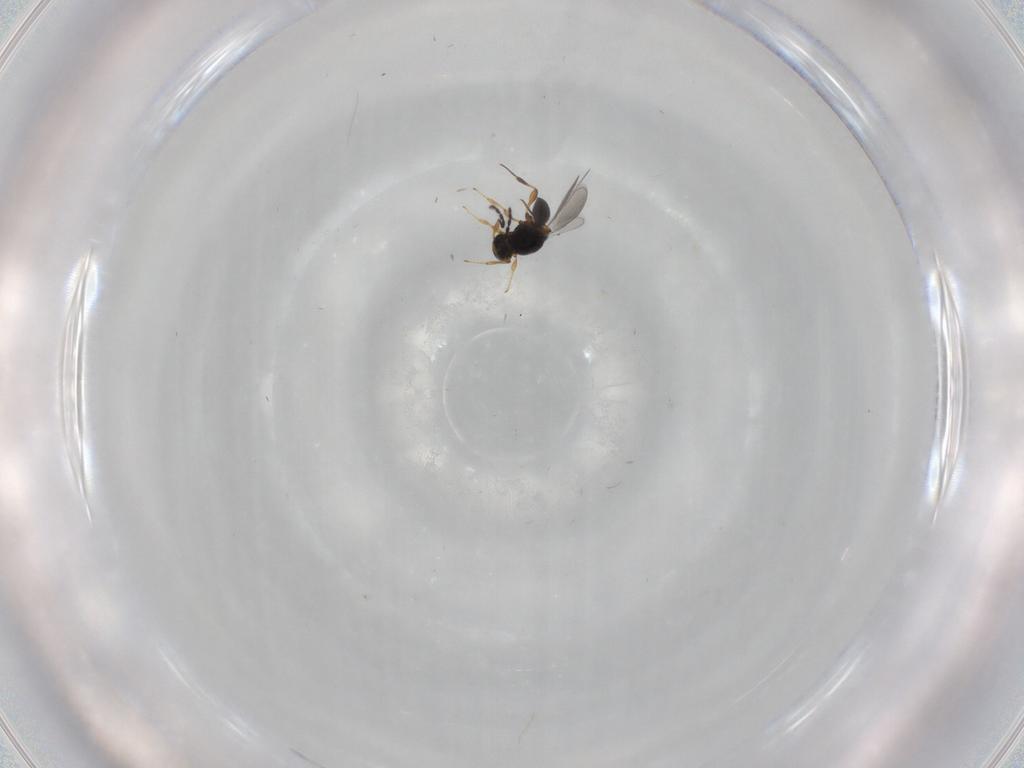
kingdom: Animalia
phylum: Arthropoda
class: Insecta
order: Hymenoptera
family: Platygastridae
